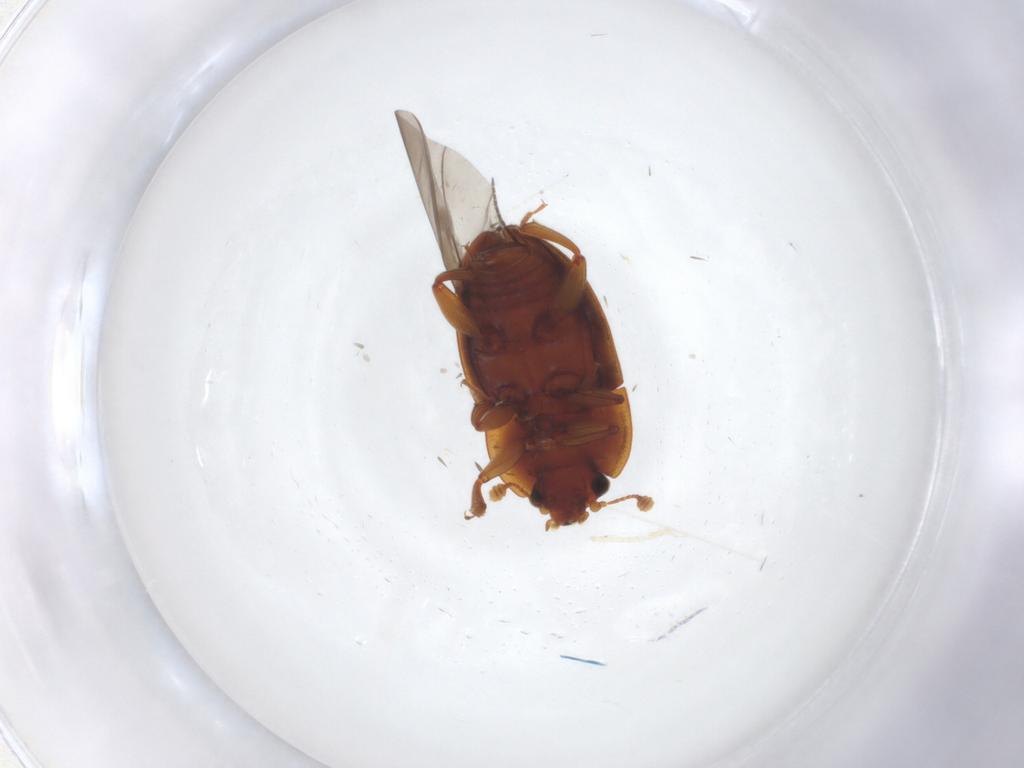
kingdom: Animalia
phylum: Arthropoda
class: Insecta
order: Coleoptera
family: Nitidulidae
